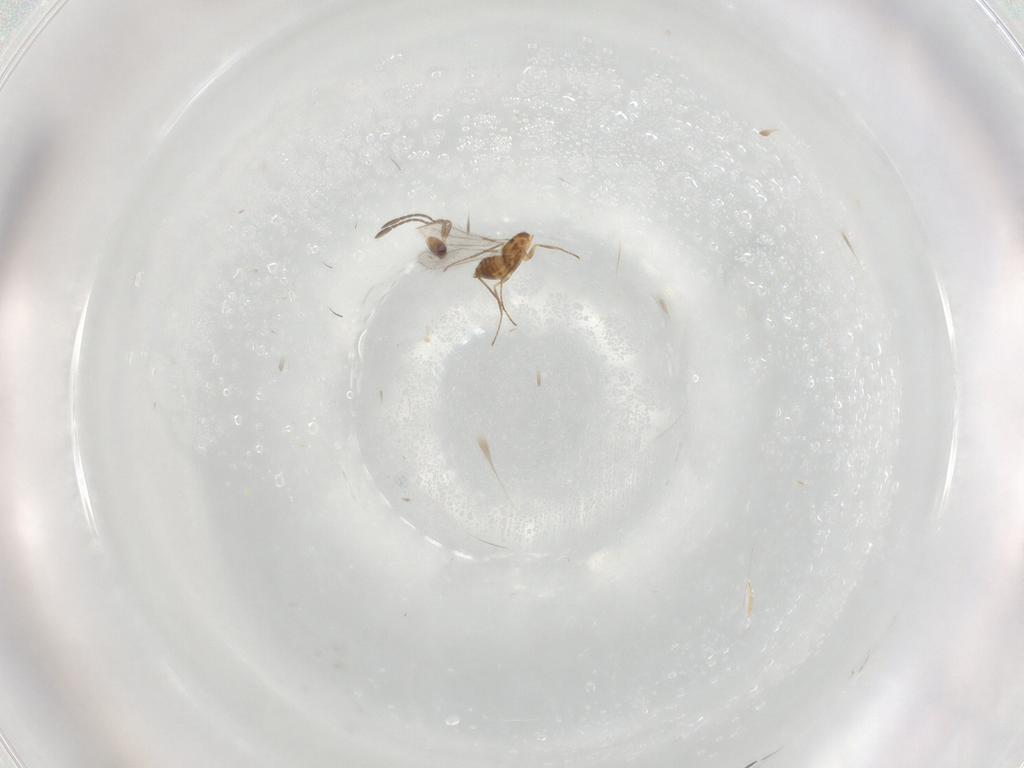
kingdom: Animalia
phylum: Arthropoda
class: Insecta
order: Hymenoptera
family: Mymaridae
